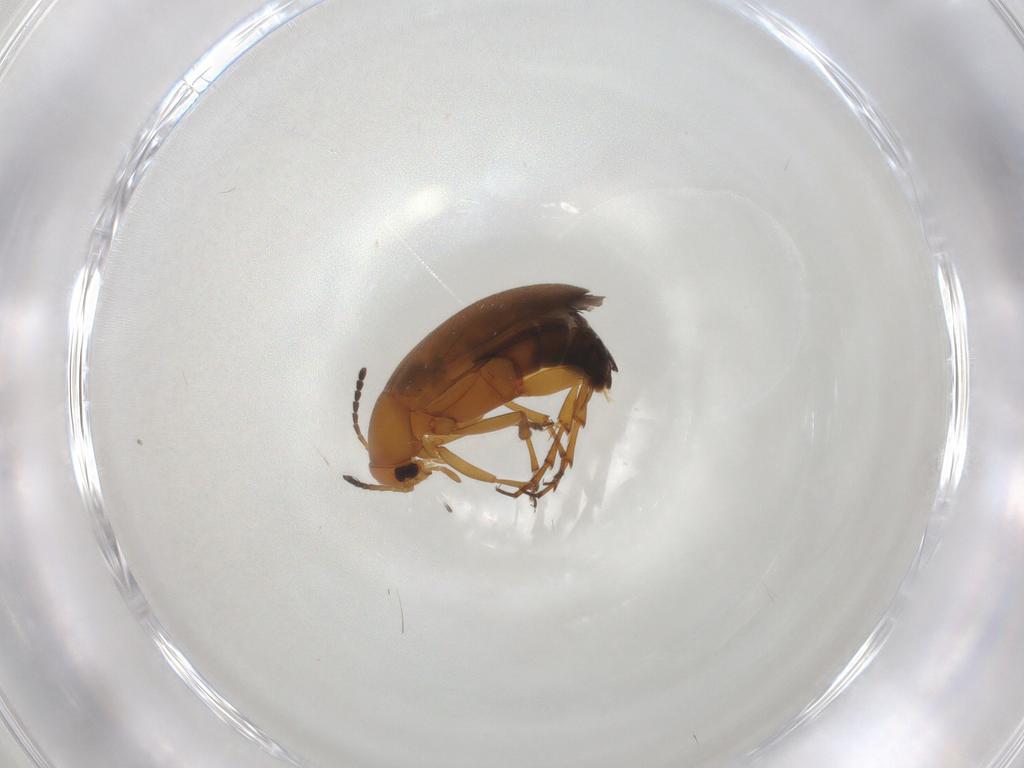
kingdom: Animalia
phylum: Arthropoda
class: Insecta
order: Coleoptera
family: Scraptiidae
